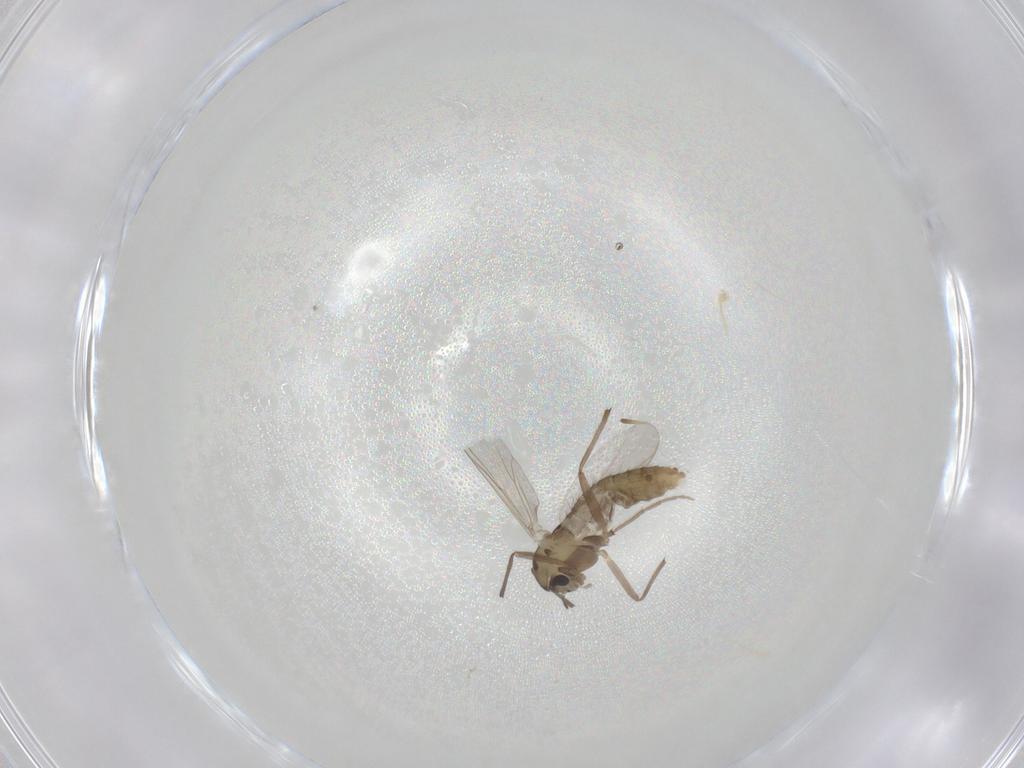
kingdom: Animalia
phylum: Arthropoda
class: Insecta
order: Diptera
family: Chironomidae
